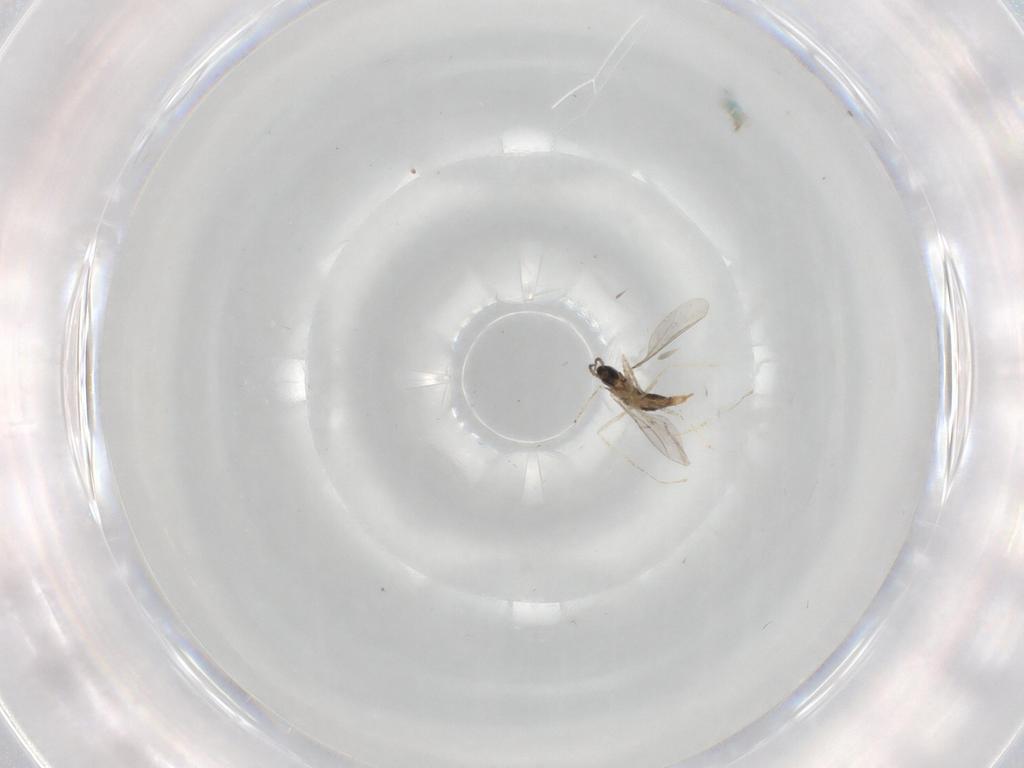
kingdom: Animalia
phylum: Arthropoda
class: Insecta
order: Diptera
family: Cecidomyiidae
